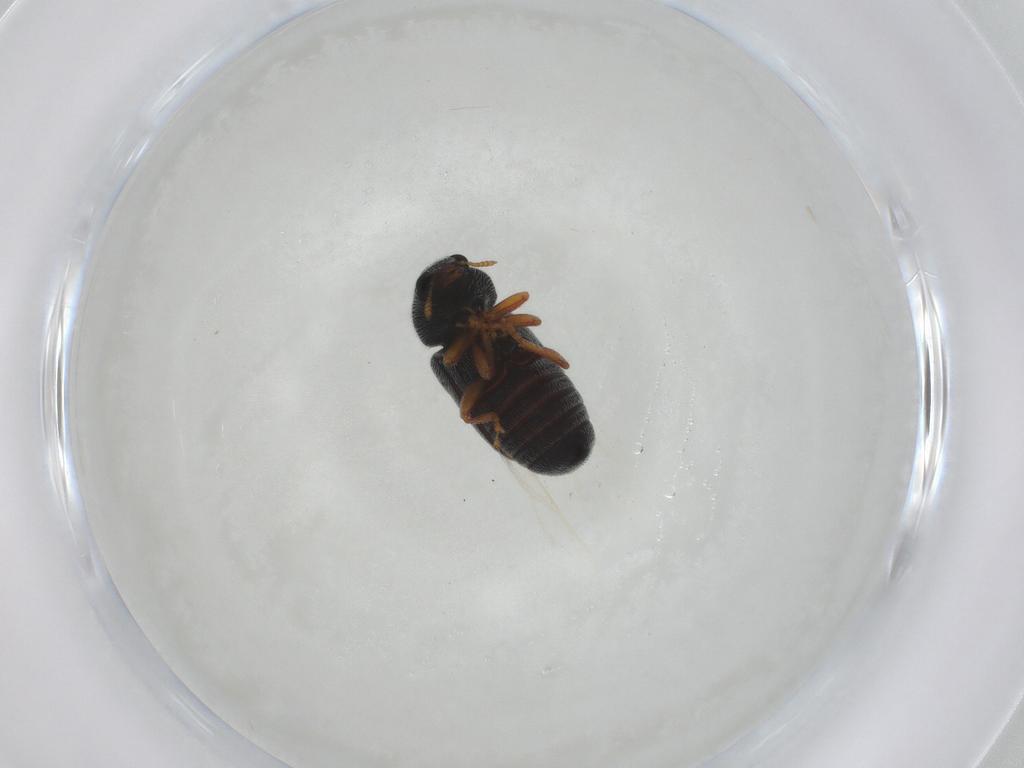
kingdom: Animalia
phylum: Arthropoda
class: Insecta
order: Coleoptera
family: Anthribidae
